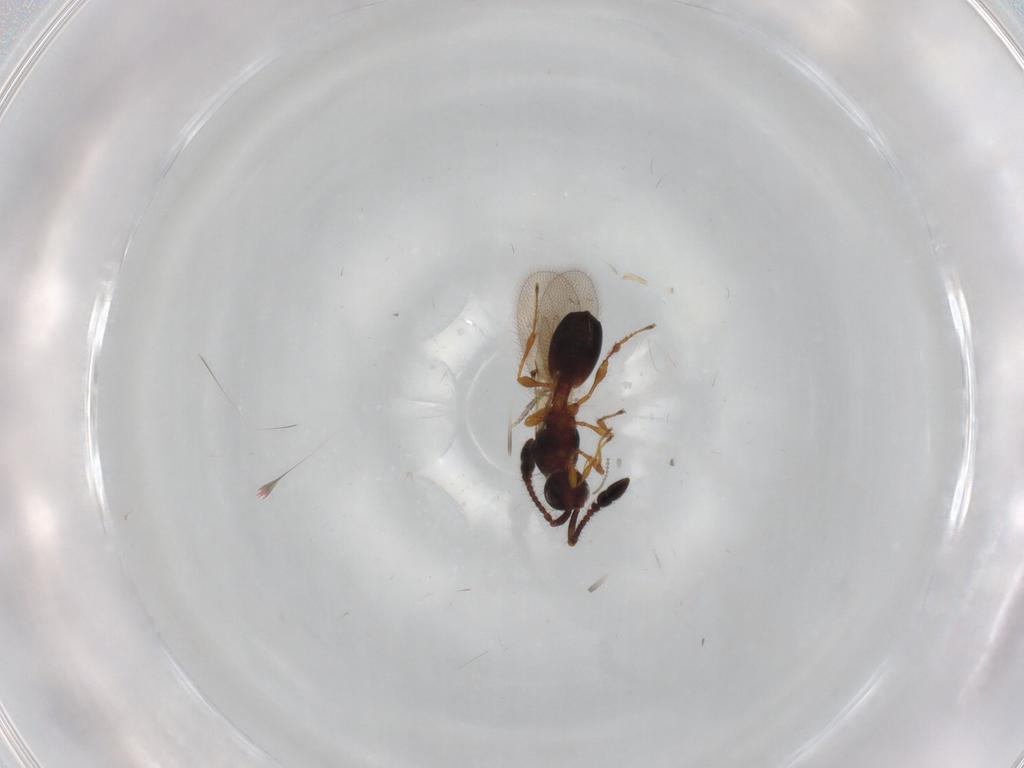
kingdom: Animalia
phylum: Arthropoda
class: Insecta
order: Hymenoptera
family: Diapriidae
